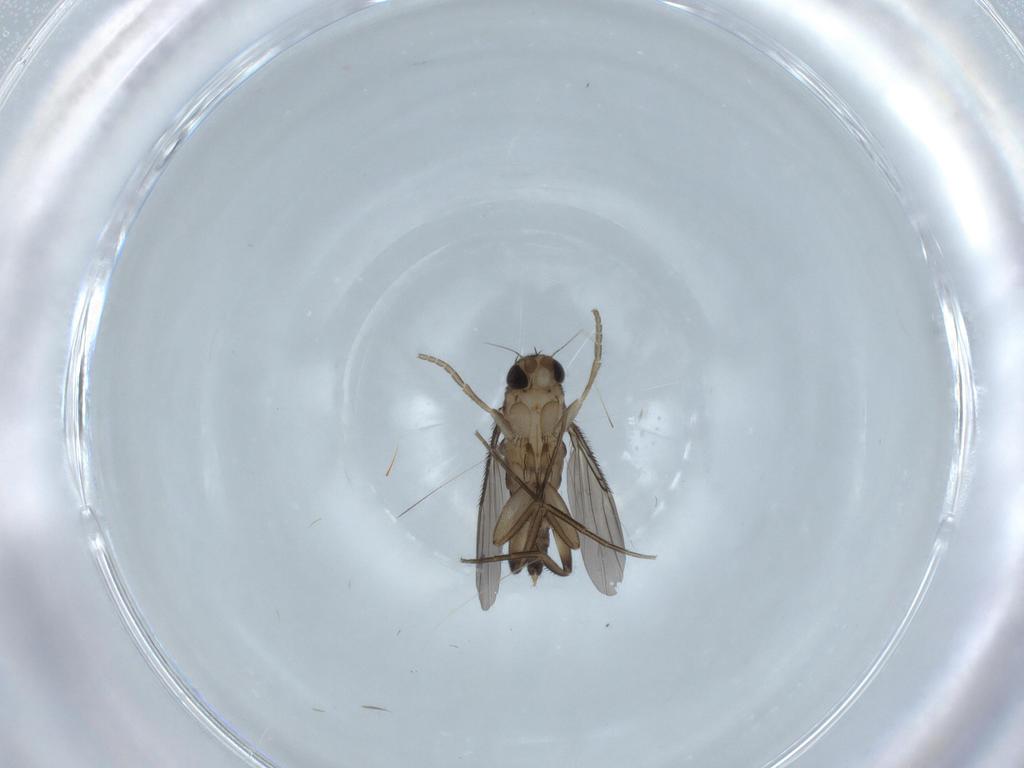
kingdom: Animalia
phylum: Arthropoda
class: Insecta
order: Diptera
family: Phoridae
